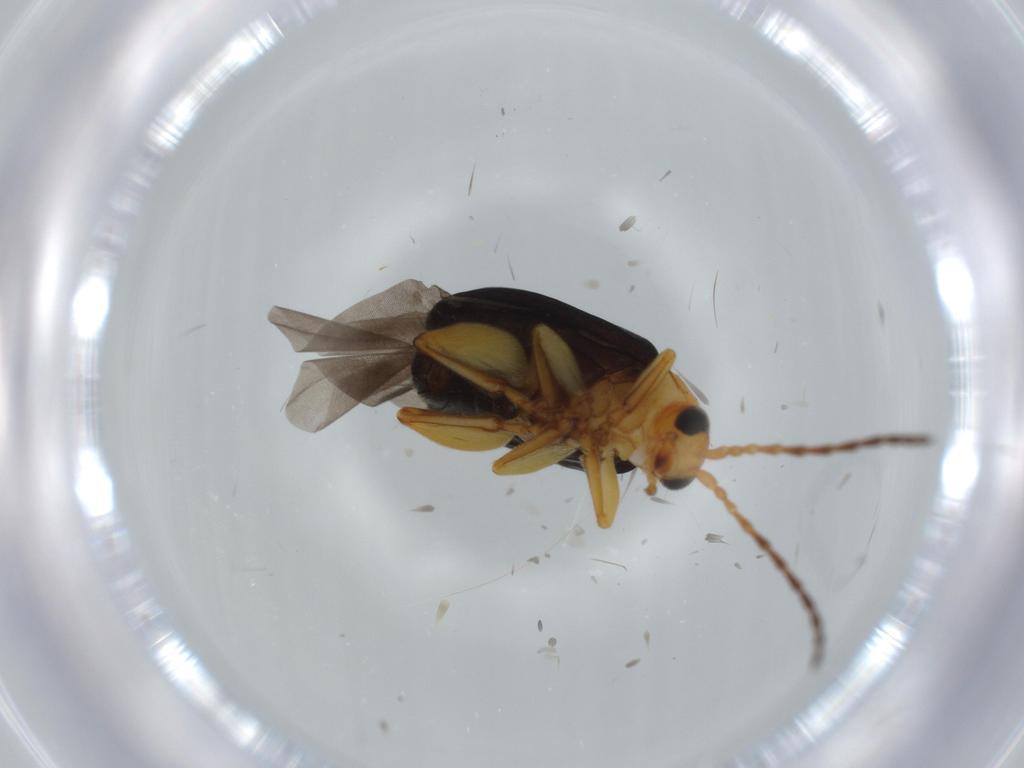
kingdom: Animalia
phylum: Arthropoda
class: Insecta
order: Coleoptera
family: Chrysomelidae
